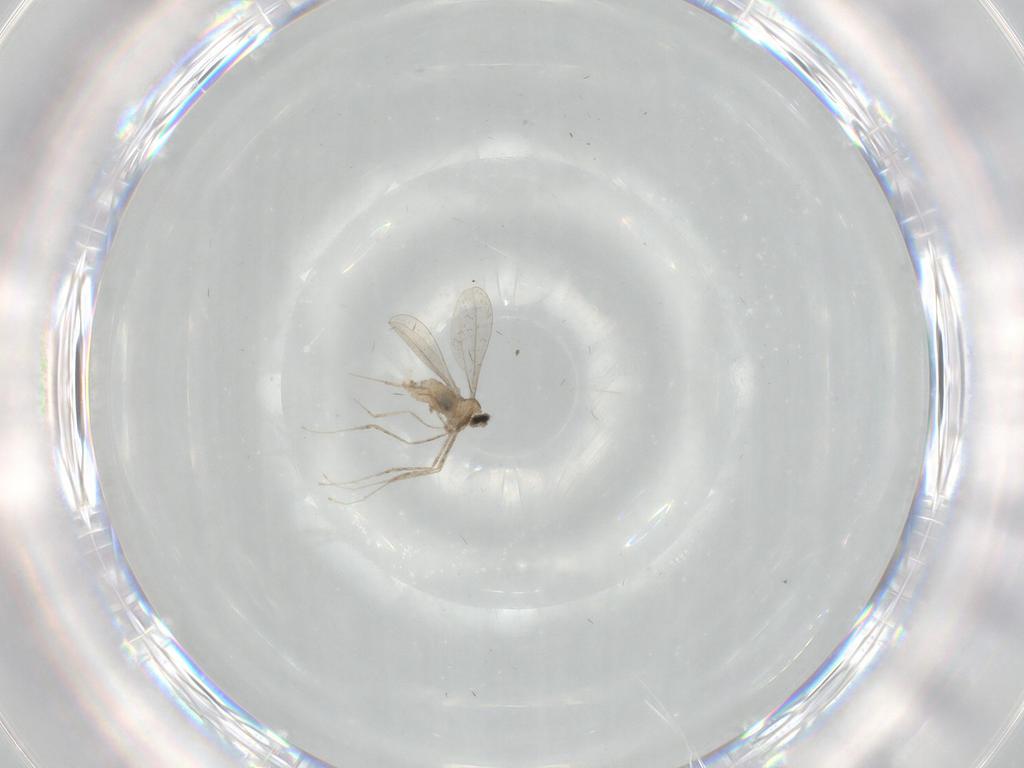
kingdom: Animalia
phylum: Arthropoda
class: Insecta
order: Diptera
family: Cecidomyiidae
